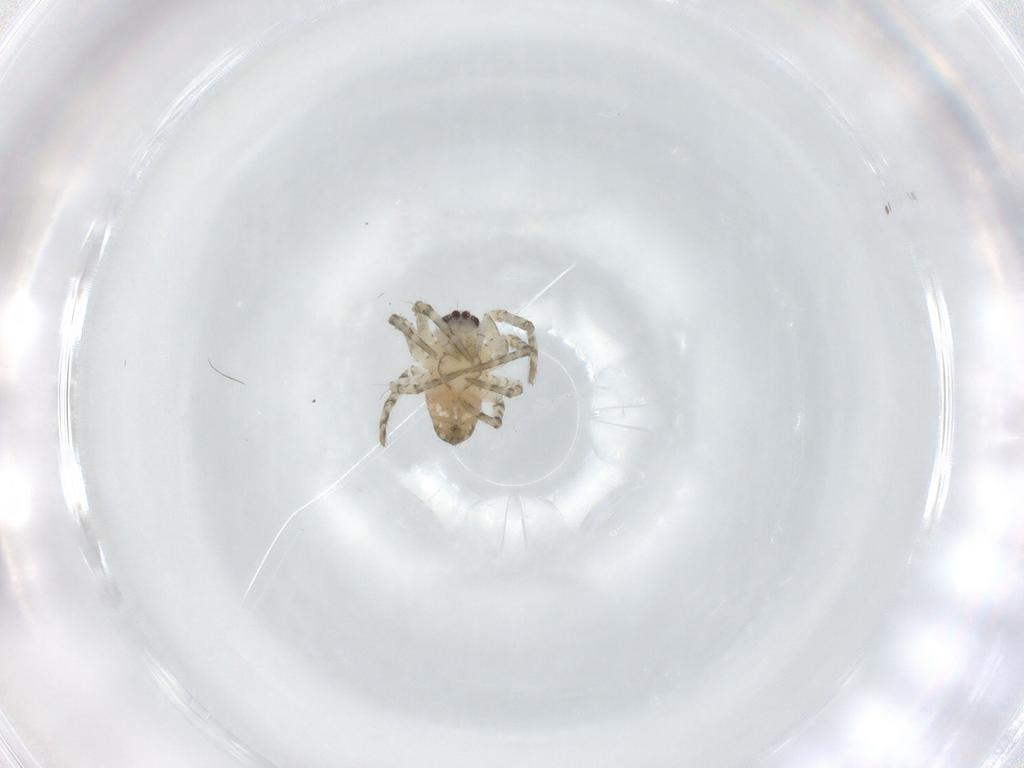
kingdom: Animalia
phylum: Arthropoda
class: Arachnida
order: Araneae
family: Araneidae
